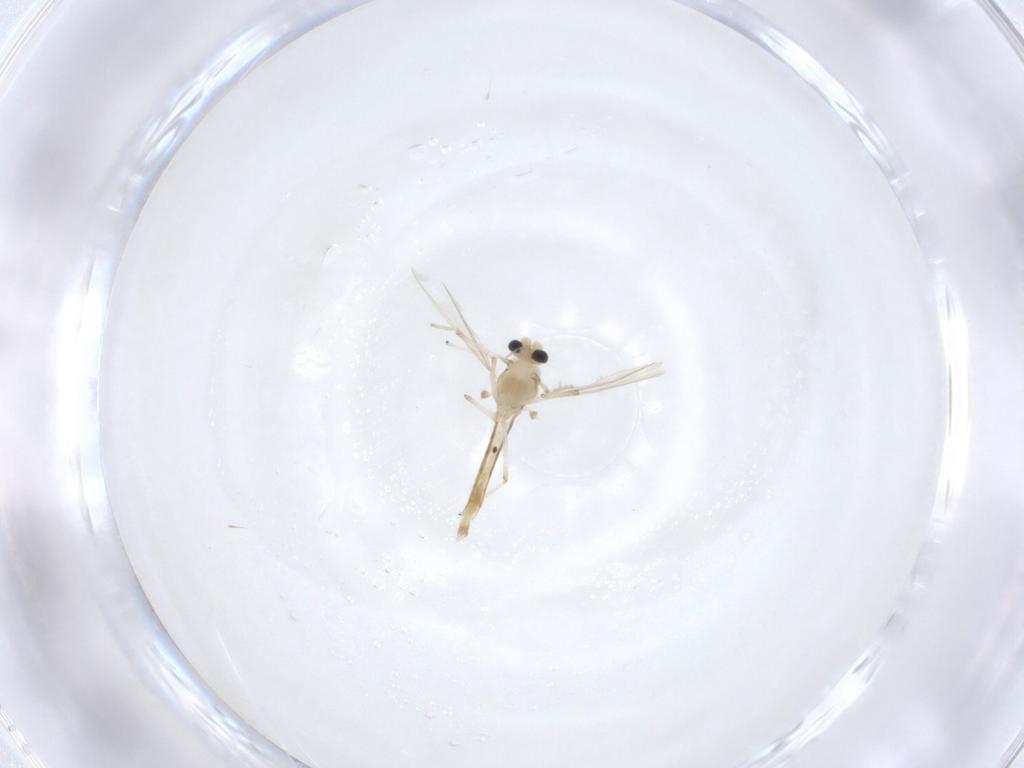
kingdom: Animalia
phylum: Arthropoda
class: Insecta
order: Diptera
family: Chironomidae
